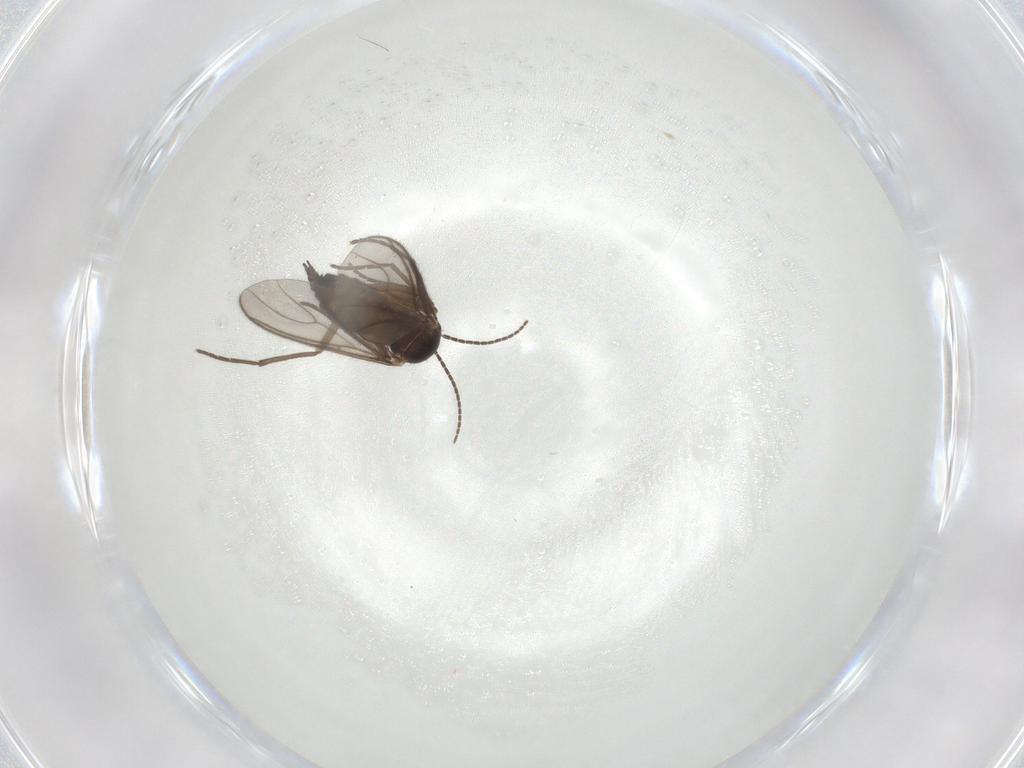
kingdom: Animalia
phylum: Arthropoda
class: Insecta
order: Diptera
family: Sciaridae
